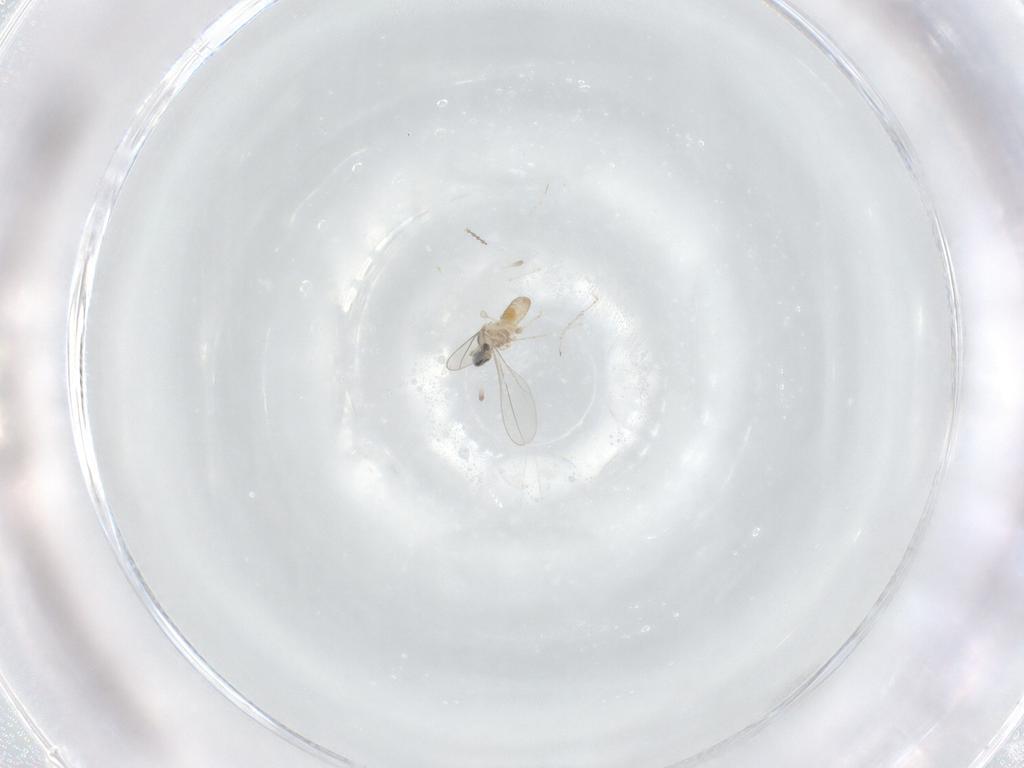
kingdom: Animalia
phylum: Arthropoda
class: Insecta
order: Diptera
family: Cecidomyiidae
